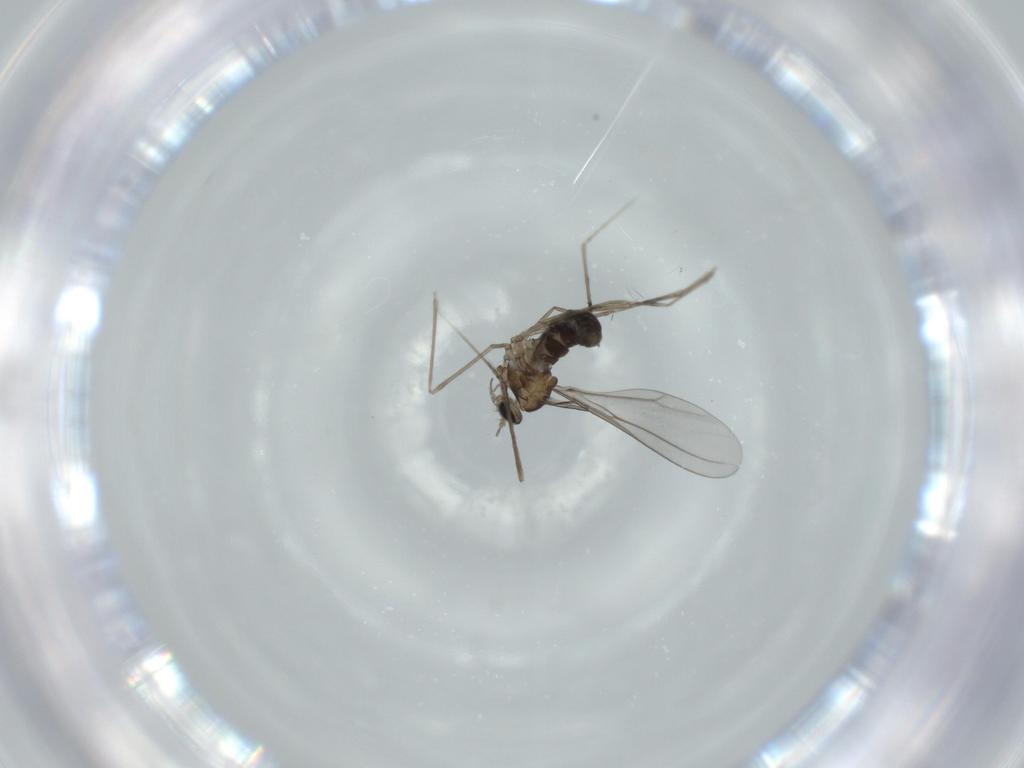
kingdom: Animalia
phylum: Arthropoda
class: Insecta
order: Diptera
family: Cecidomyiidae
